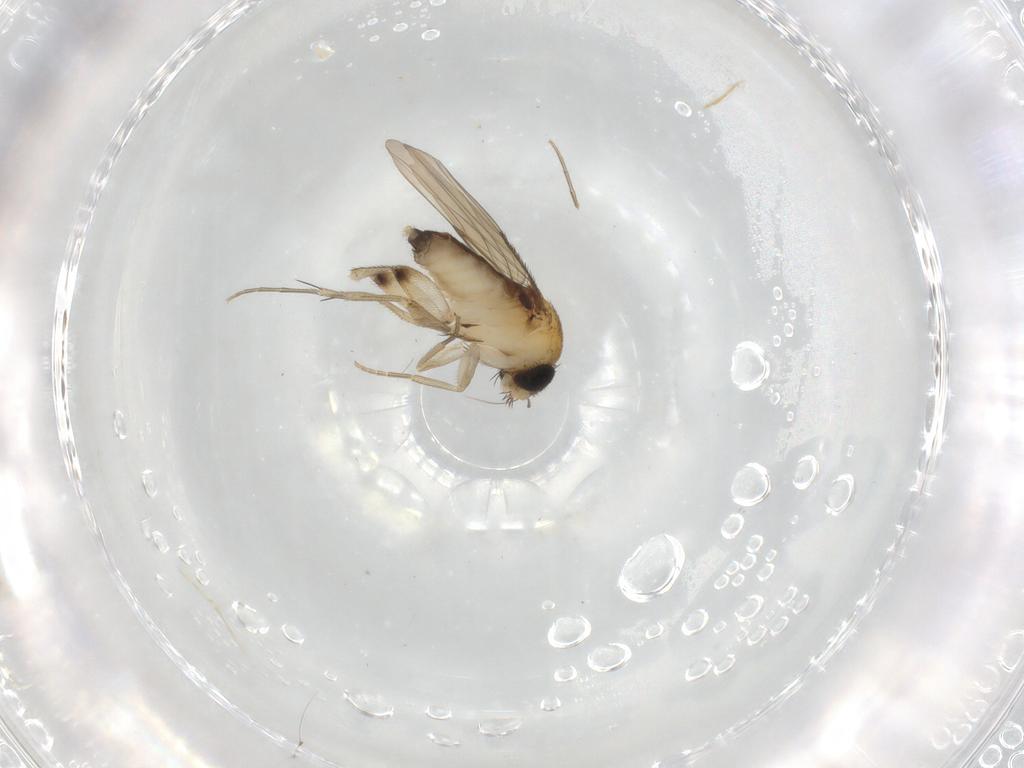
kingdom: Animalia
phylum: Arthropoda
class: Insecta
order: Diptera
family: Phoridae
